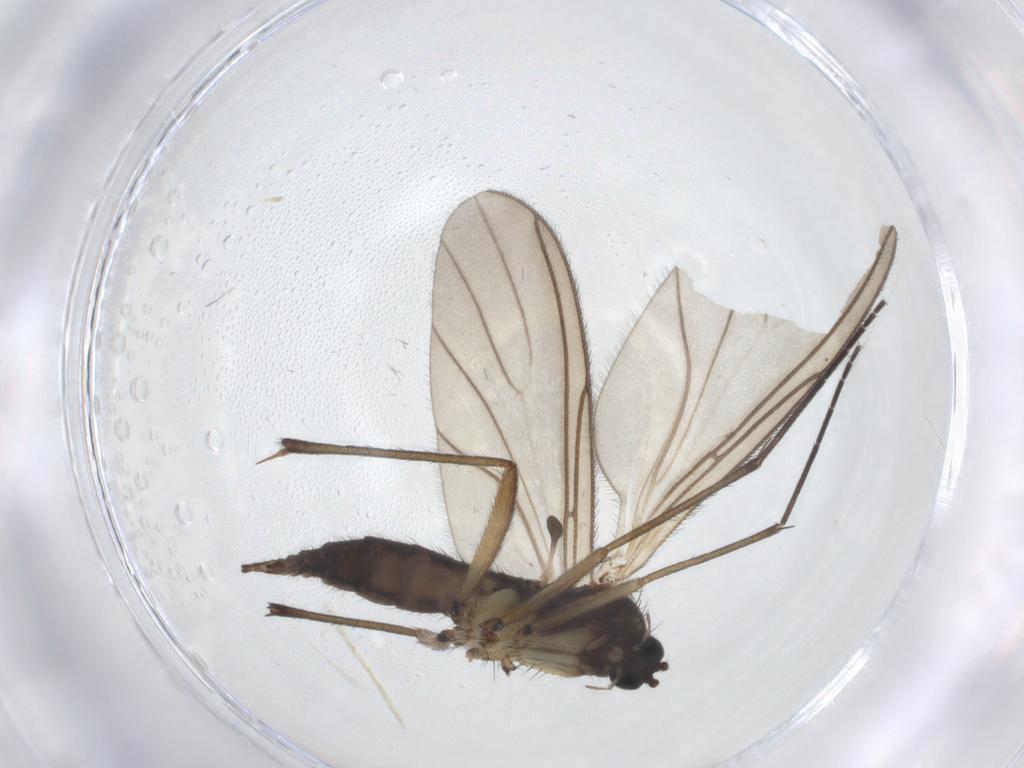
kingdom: Animalia
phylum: Arthropoda
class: Insecta
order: Diptera
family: Sciaridae
